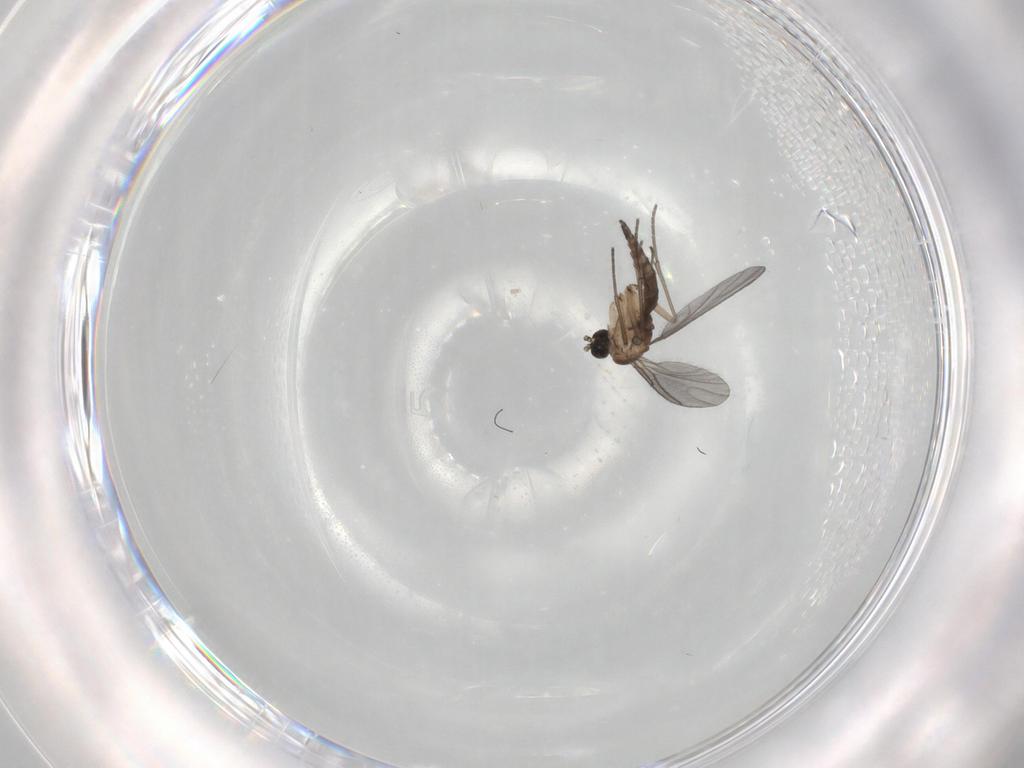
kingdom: Animalia
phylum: Arthropoda
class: Insecta
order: Diptera
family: Sciaridae
